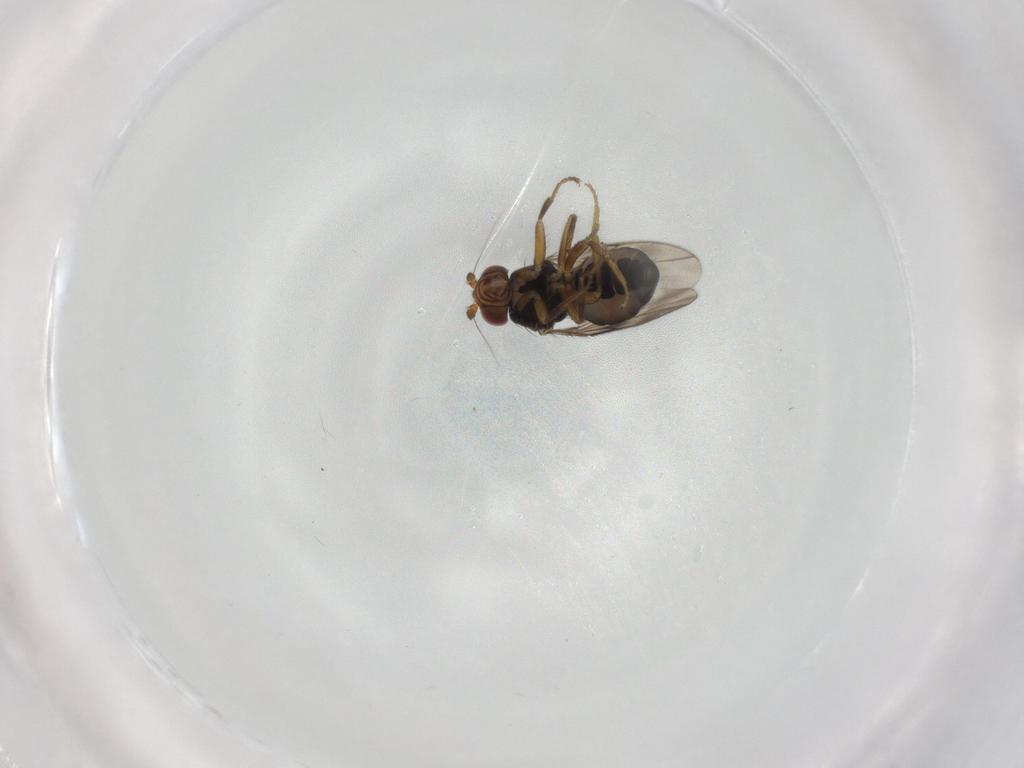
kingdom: Animalia
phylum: Arthropoda
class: Insecta
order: Diptera
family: Sphaeroceridae
